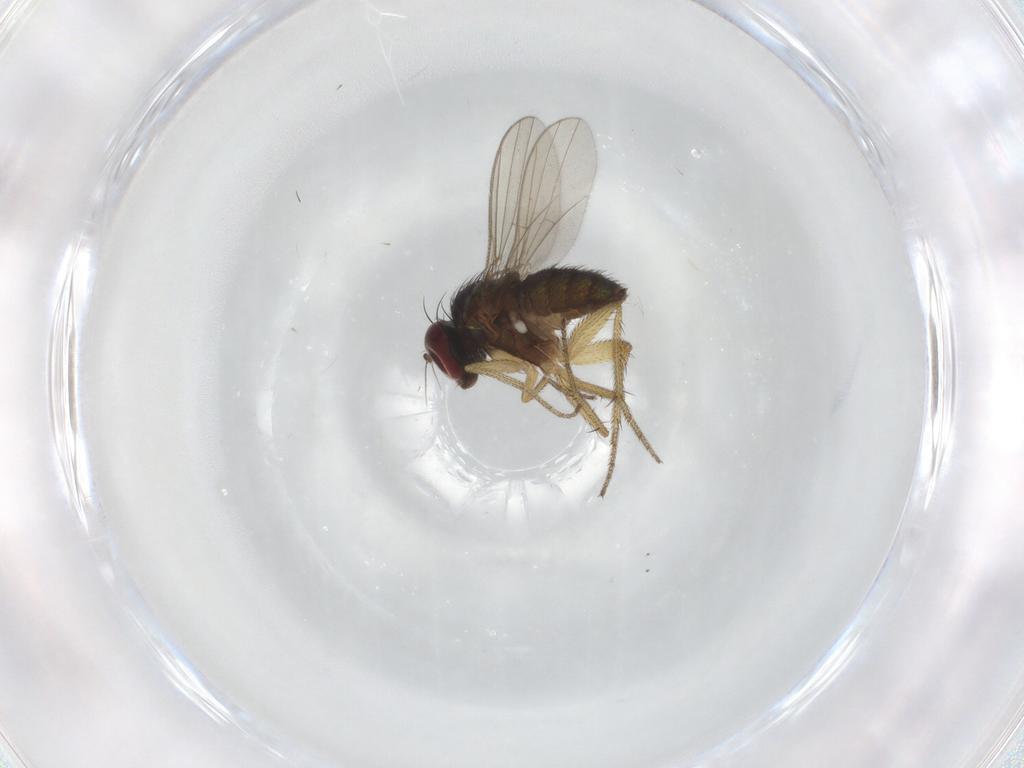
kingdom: Animalia
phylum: Arthropoda
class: Insecta
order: Diptera
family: Dolichopodidae
